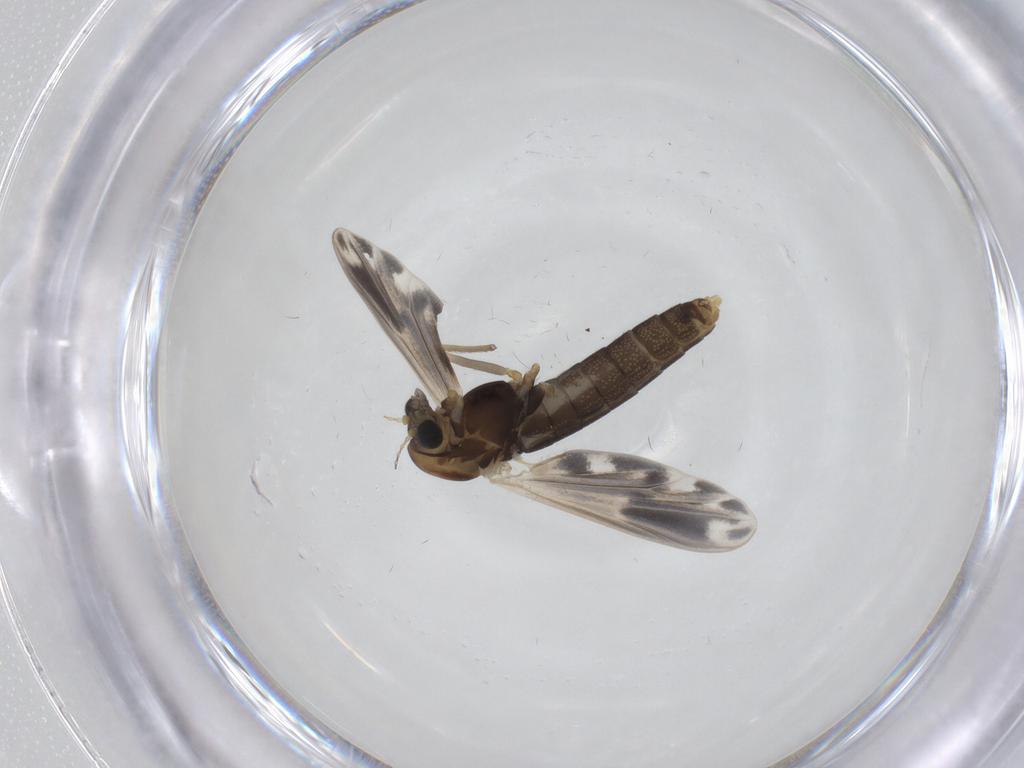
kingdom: Animalia
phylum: Arthropoda
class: Insecta
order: Diptera
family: Chironomidae
